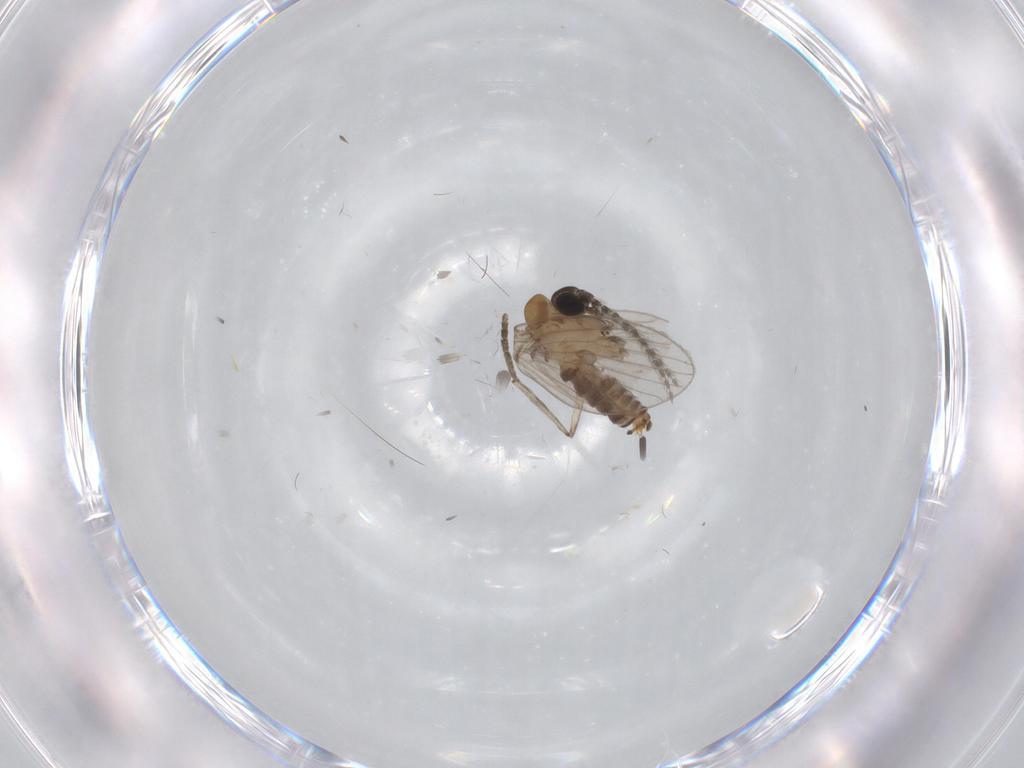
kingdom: Animalia
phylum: Arthropoda
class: Insecta
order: Diptera
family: Psychodidae
